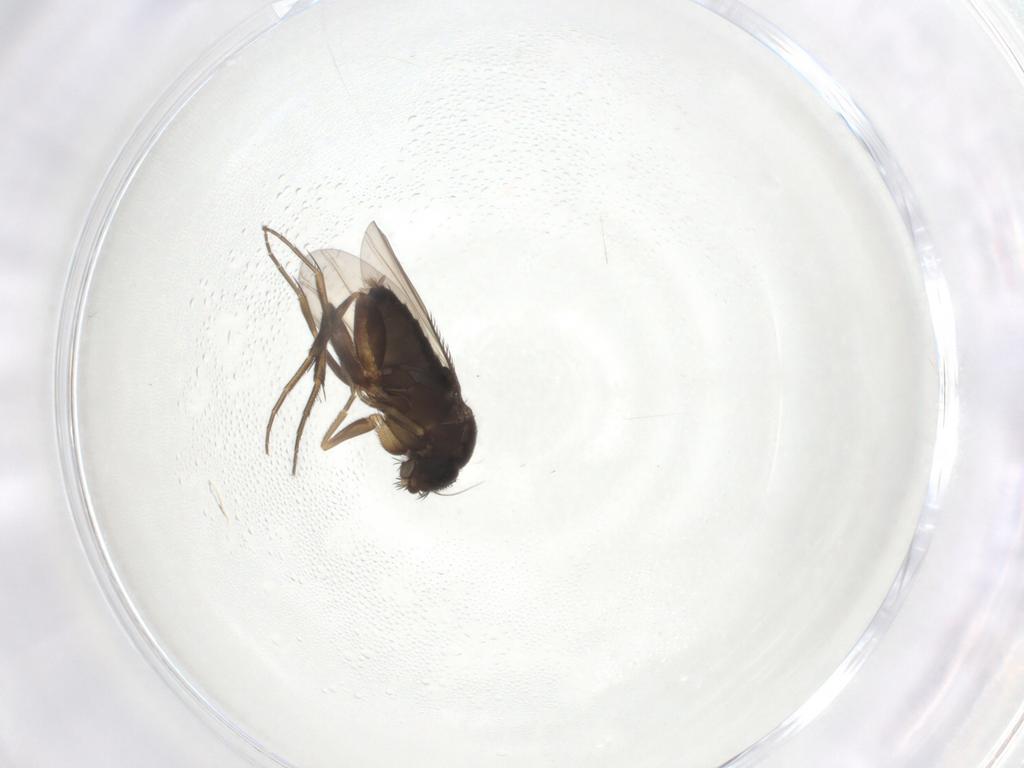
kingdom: Animalia
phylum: Arthropoda
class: Insecta
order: Diptera
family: Phoridae
